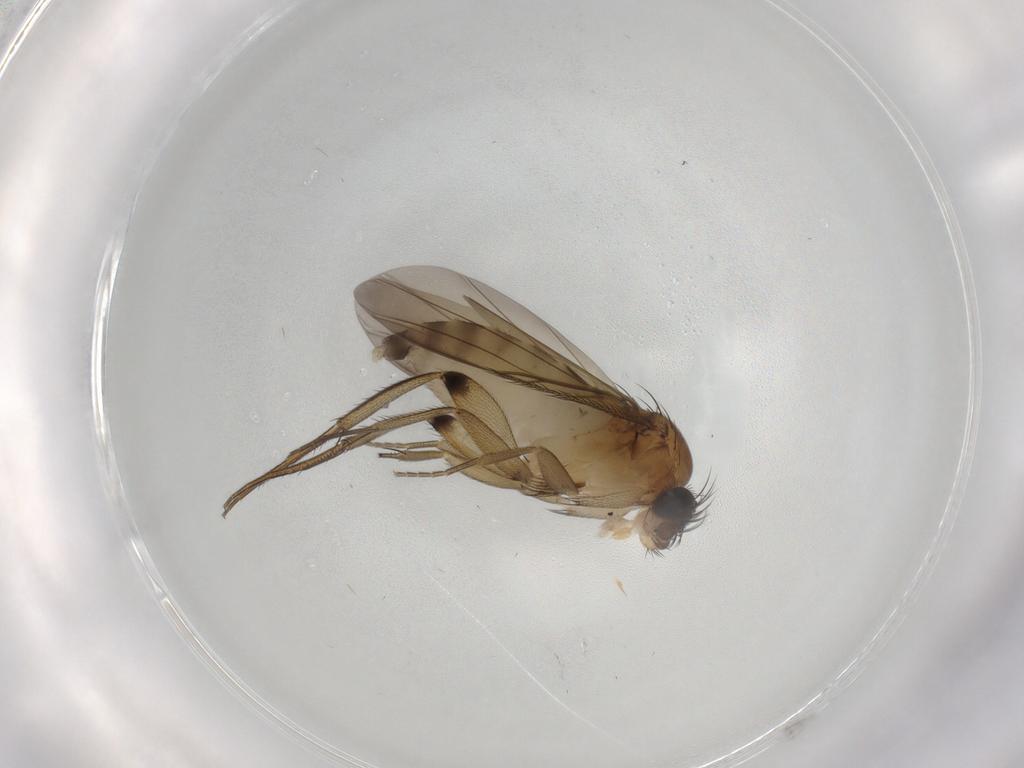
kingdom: Animalia
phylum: Arthropoda
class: Insecta
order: Diptera
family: Phoridae
